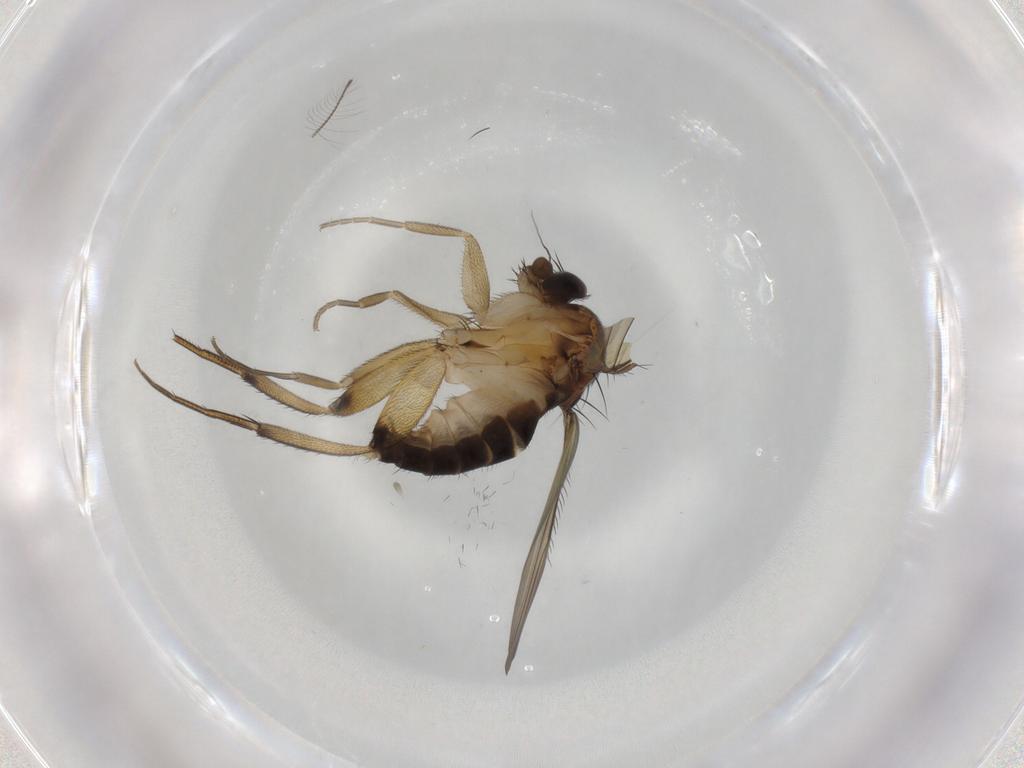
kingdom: Animalia
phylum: Arthropoda
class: Insecta
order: Diptera
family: Phoridae
